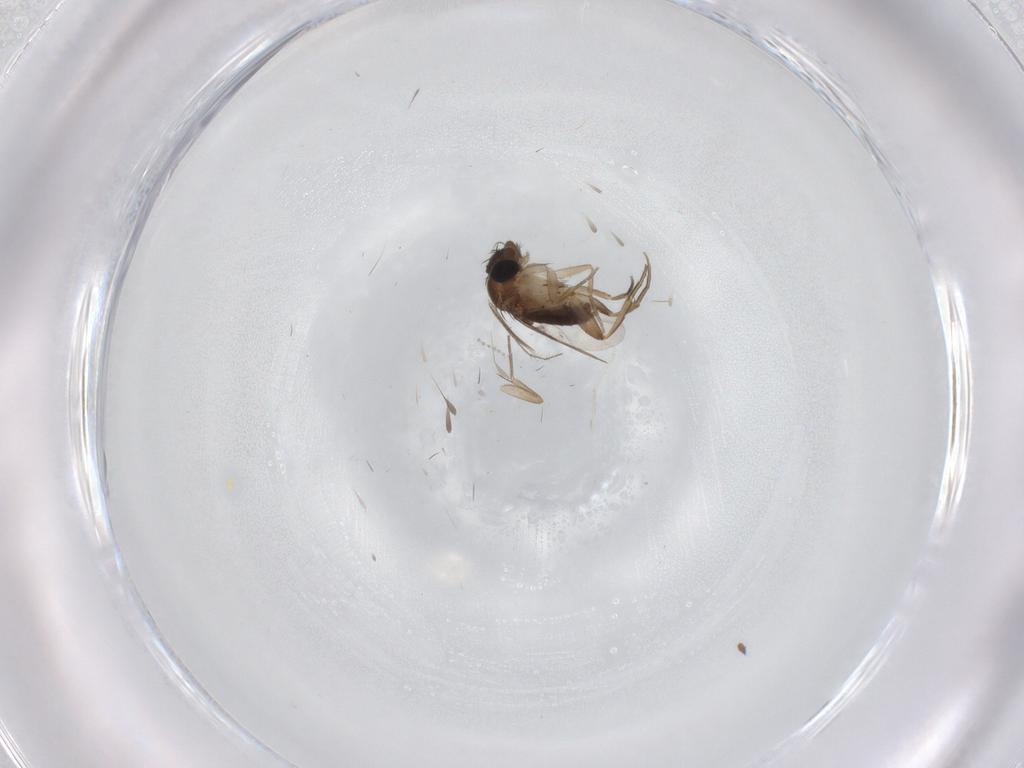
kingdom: Animalia
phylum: Arthropoda
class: Insecta
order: Diptera
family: Phoridae
